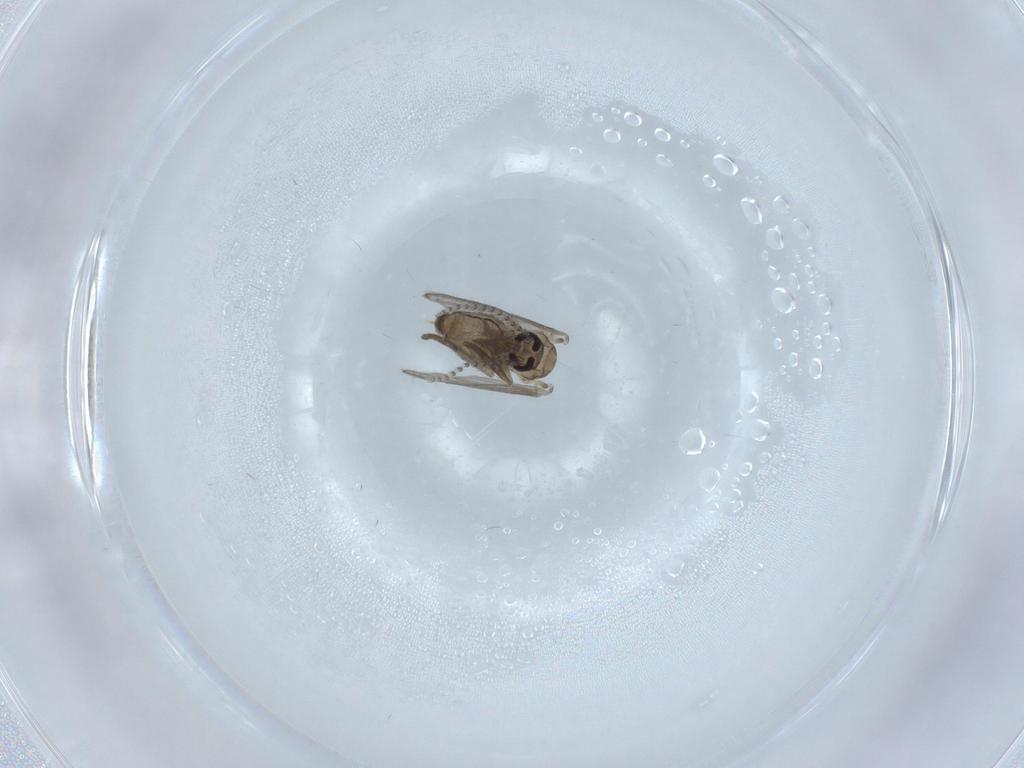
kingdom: Animalia
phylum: Arthropoda
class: Insecta
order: Diptera
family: Psychodidae
